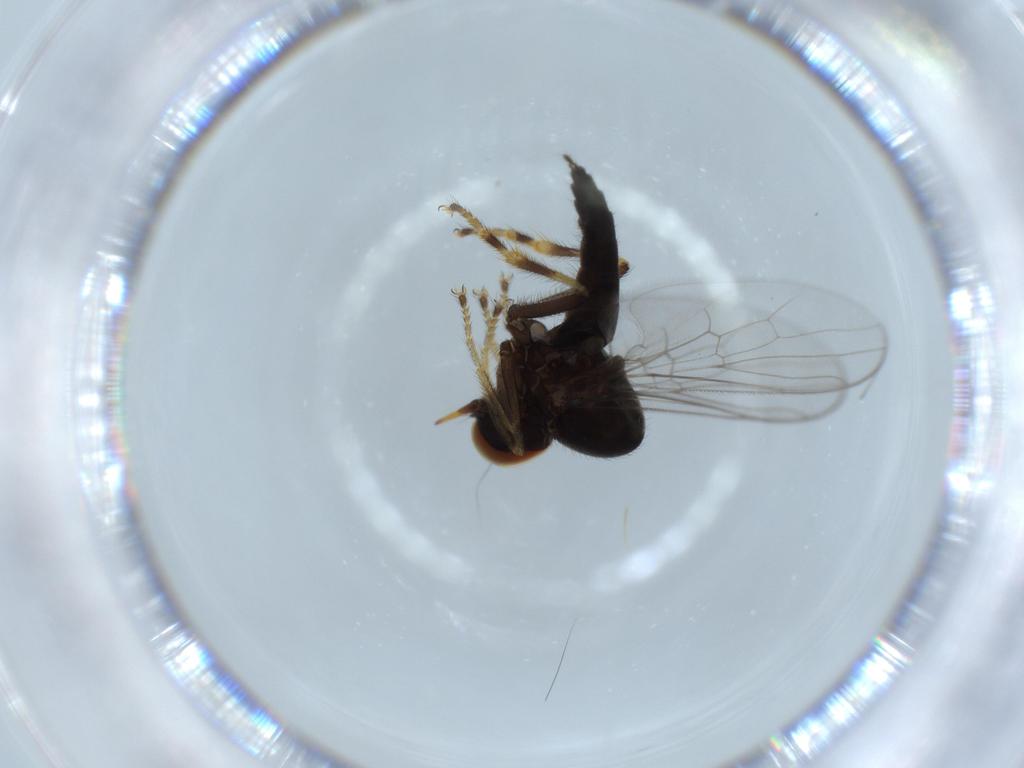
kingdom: Animalia
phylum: Arthropoda
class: Insecta
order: Diptera
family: Hybotidae
